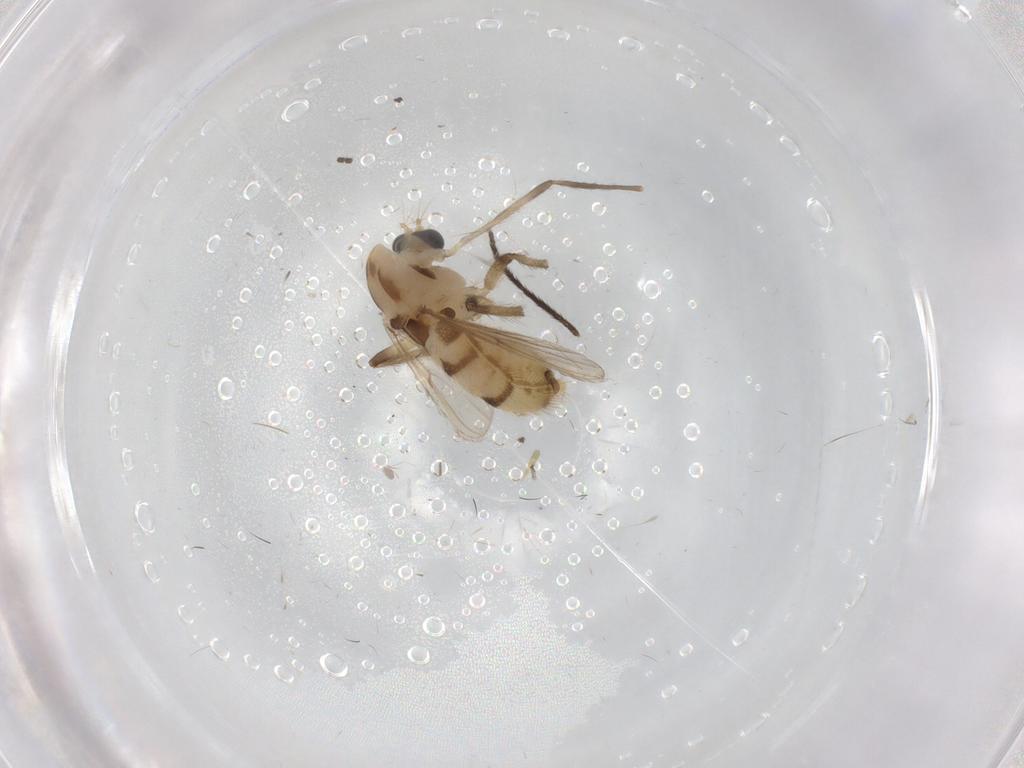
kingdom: Animalia
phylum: Arthropoda
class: Insecta
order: Diptera
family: Chironomidae
